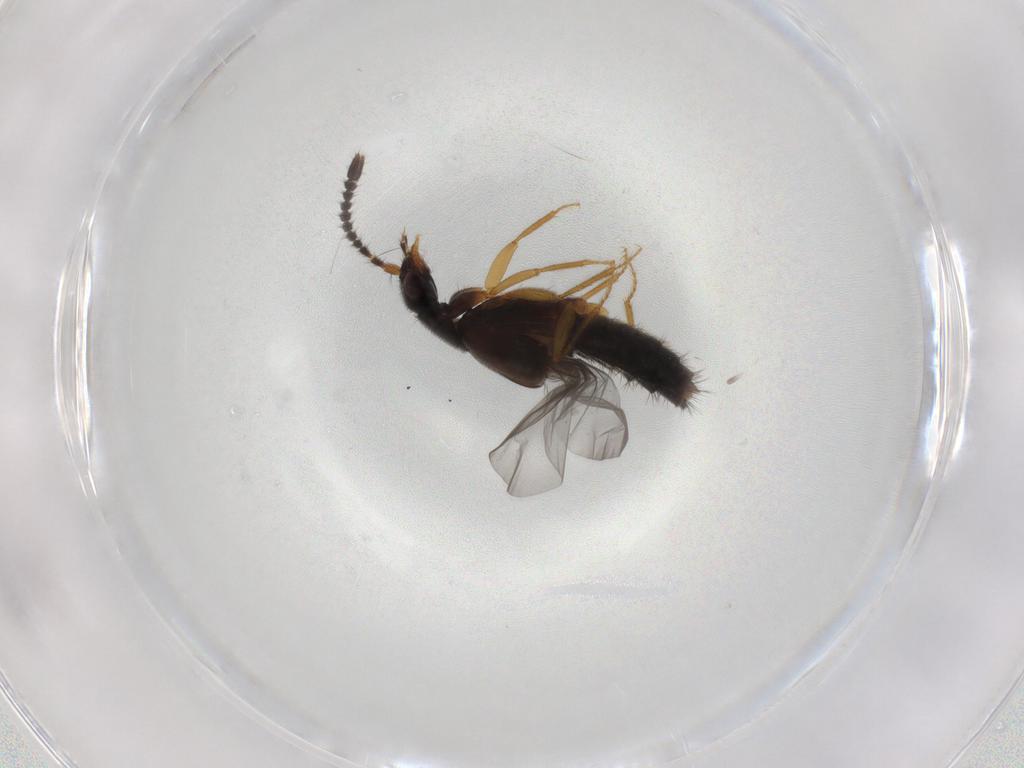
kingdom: Animalia
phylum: Arthropoda
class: Insecta
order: Coleoptera
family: Staphylinidae
